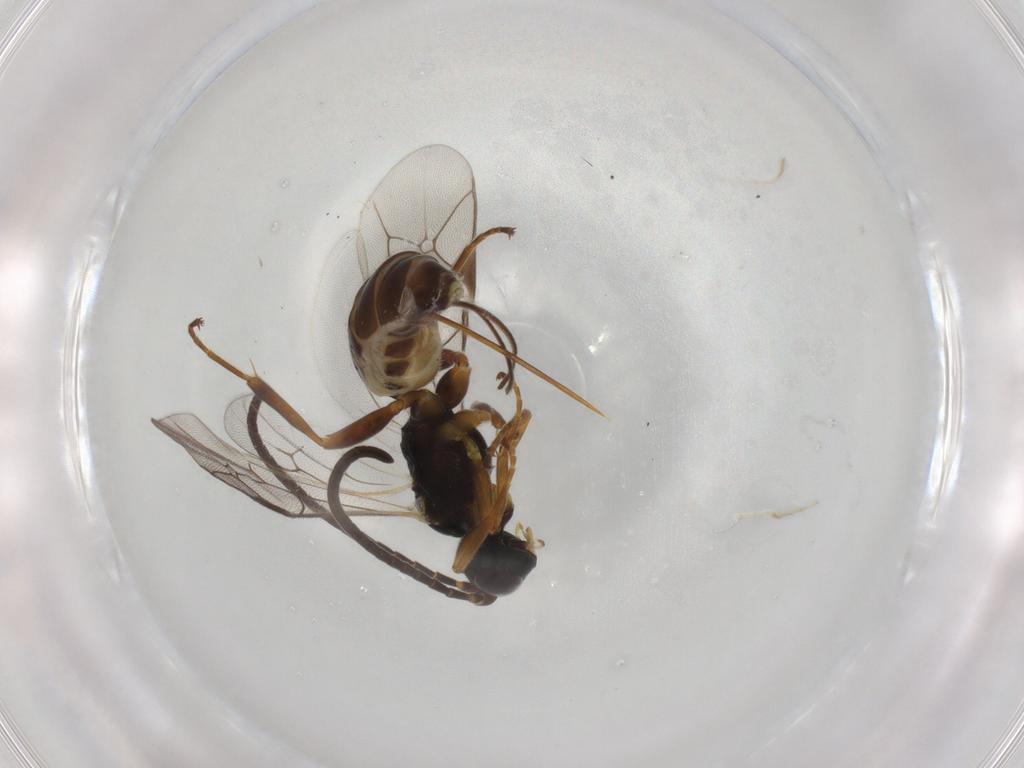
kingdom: Animalia
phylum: Arthropoda
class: Insecta
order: Hymenoptera
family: Ichneumonidae
